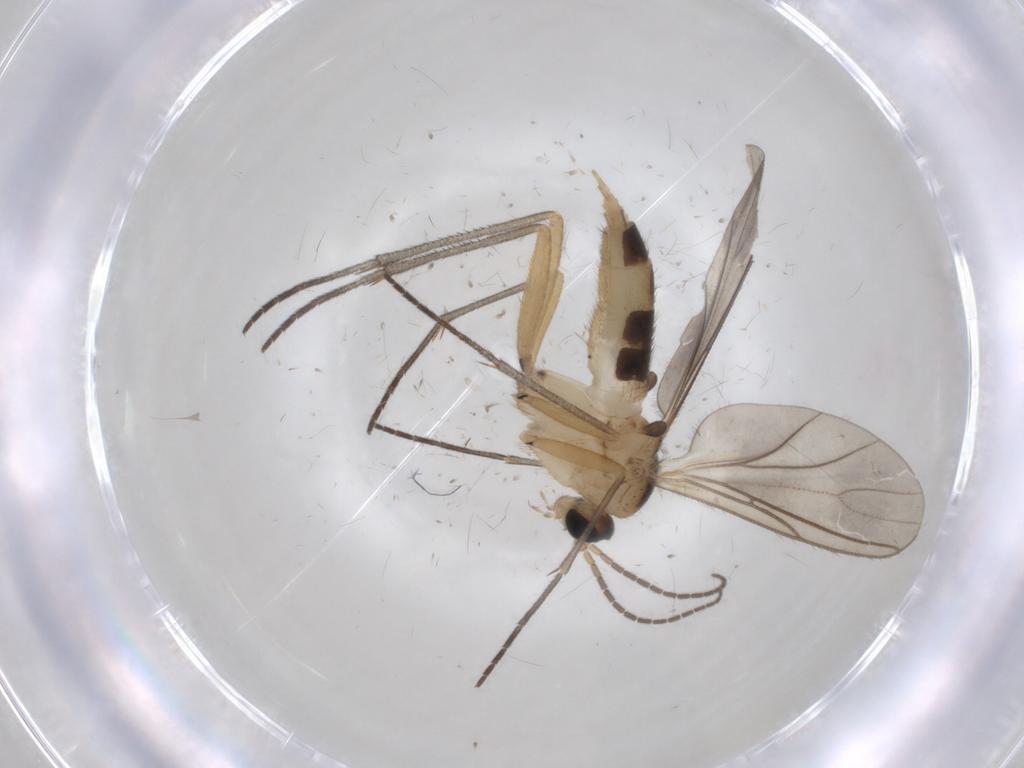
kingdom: Animalia
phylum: Arthropoda
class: Insecta
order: Diptera
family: Sciaridae
